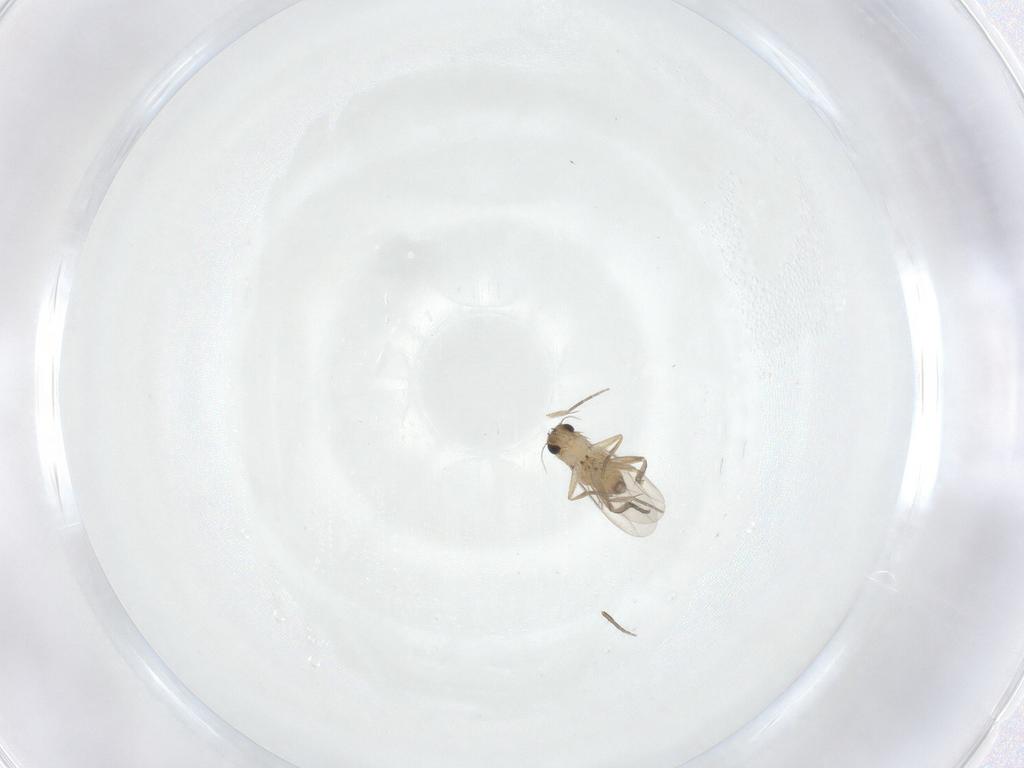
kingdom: Animalia
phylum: Arthropoda
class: Insecta
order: Diptera
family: Phoridae
